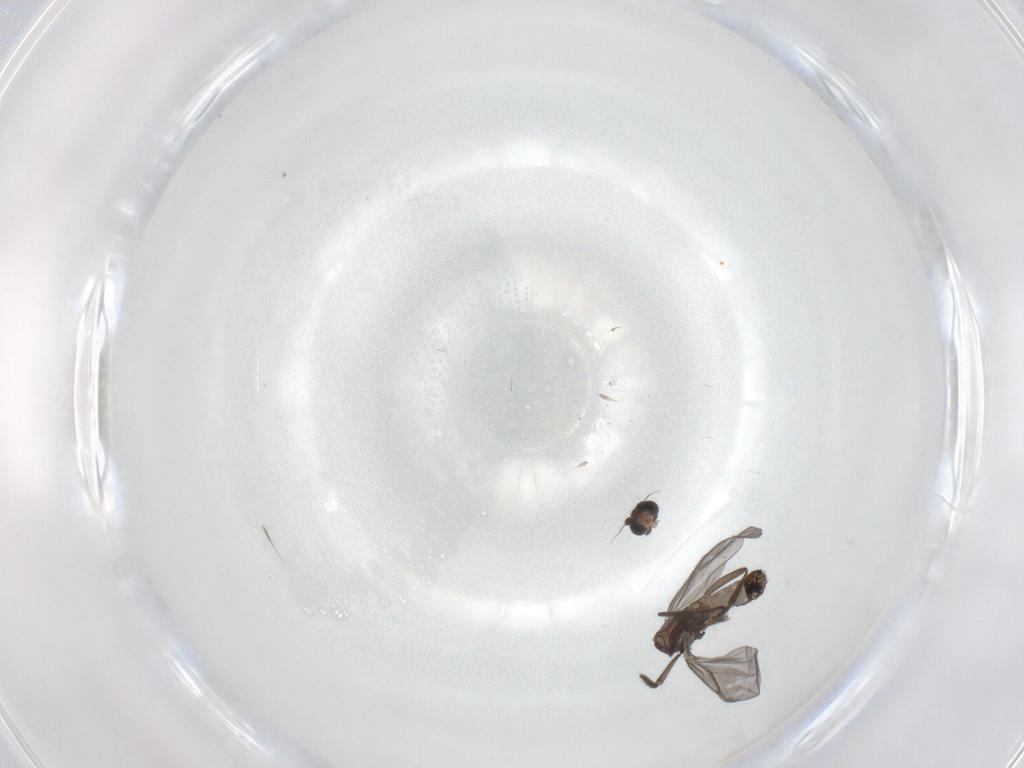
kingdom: Animalia
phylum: Arthropoda
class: Insecta
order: Diptera
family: Phoridae
